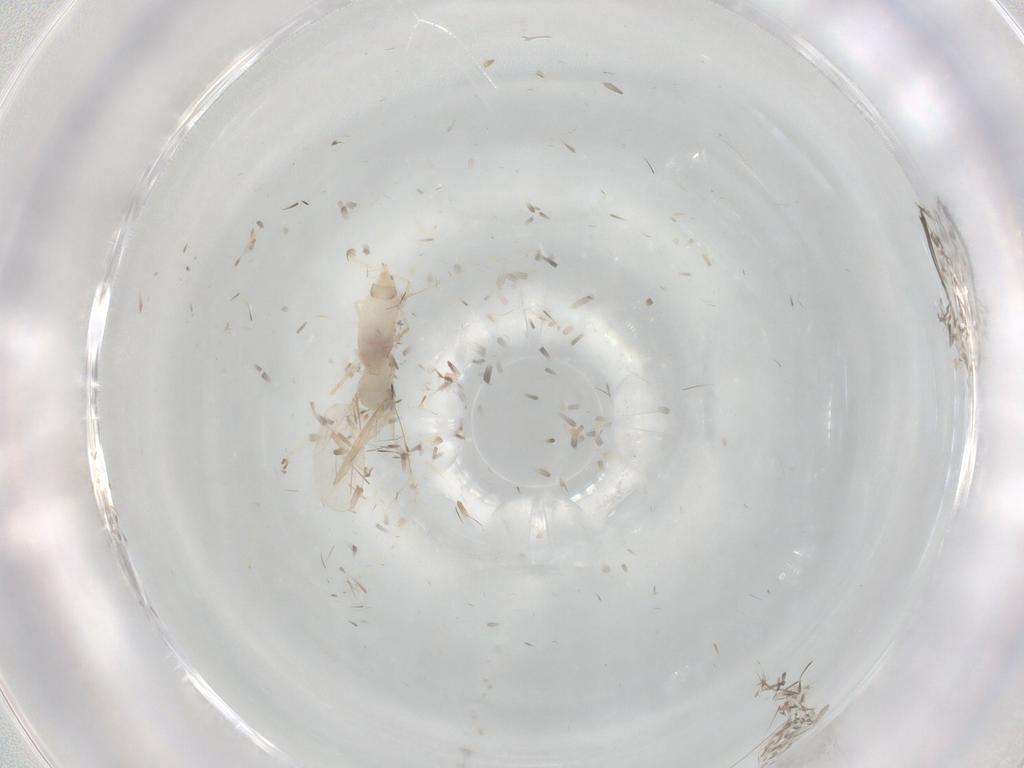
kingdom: Animalia
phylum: Arthropoda
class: Insecta
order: Diptera
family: Cecidomyiidae
